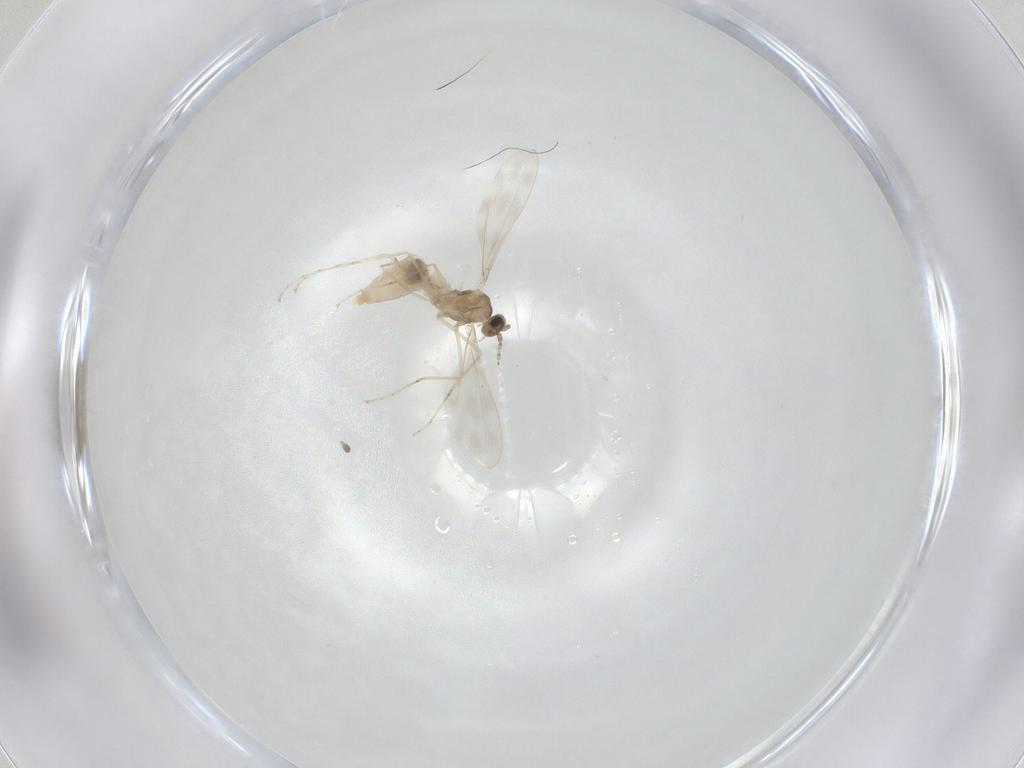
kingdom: Animalia
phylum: Arthropoda
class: Insecta
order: Diptera
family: Cecidomyiidae
